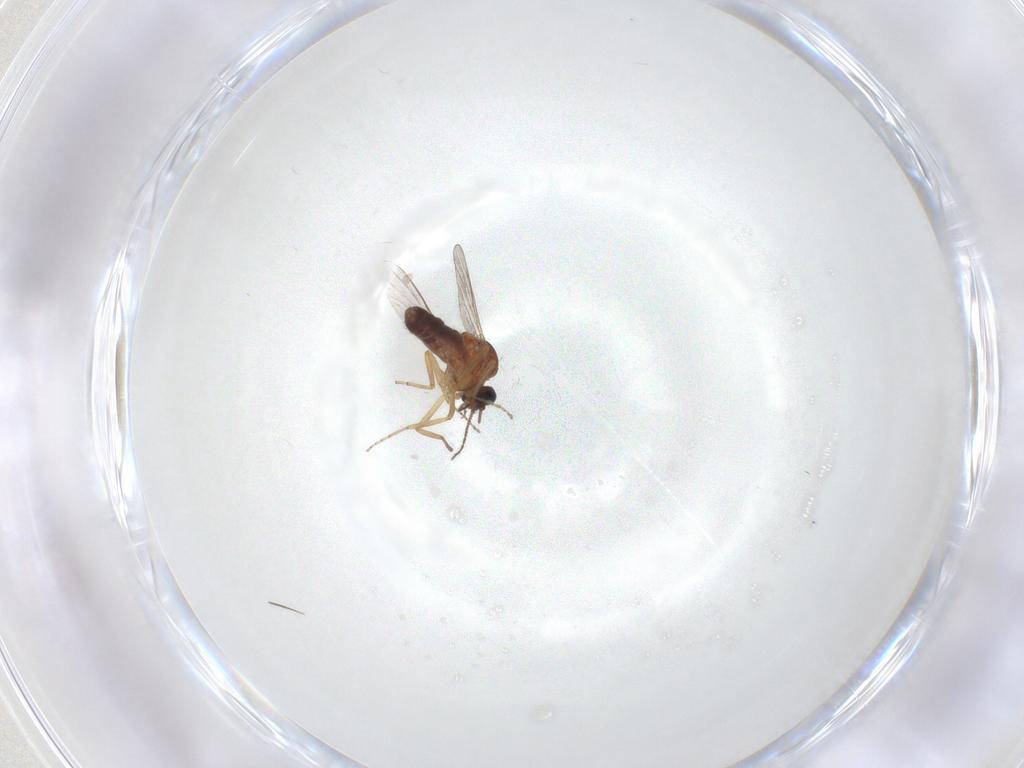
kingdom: Animalia
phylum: Arthropoda
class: Insecta
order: Diptera
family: Ceratopogonidae
